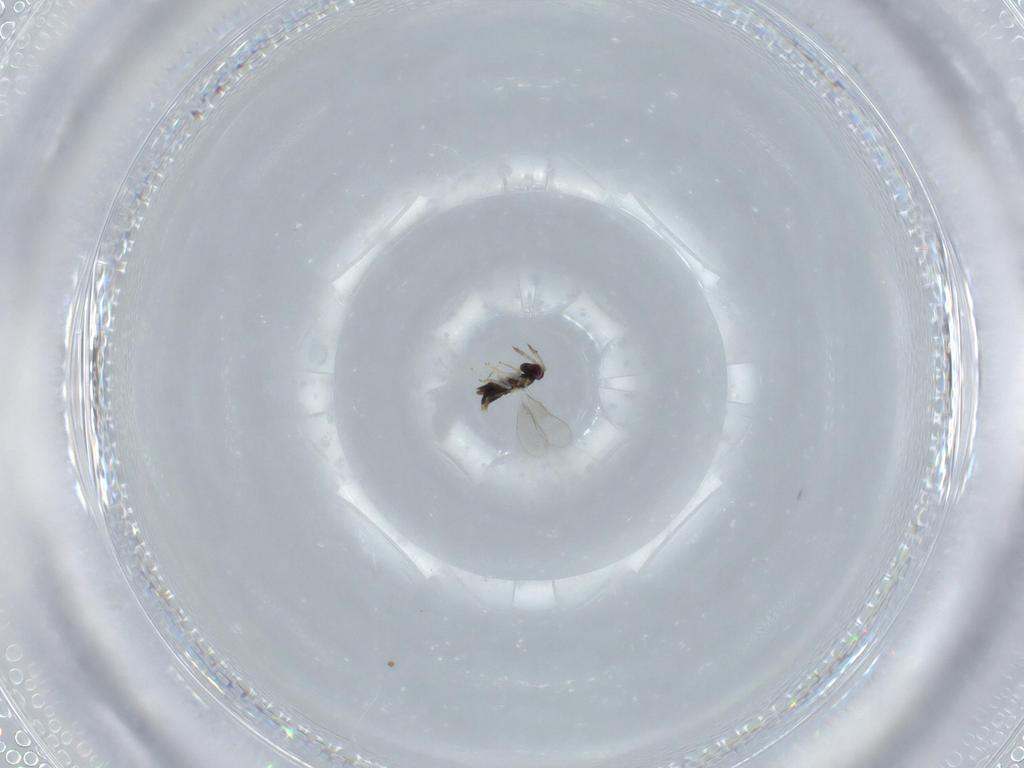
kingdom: Animalia
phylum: Arthropoda
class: Insecta
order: Hymenoptera
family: Aphelinidae
